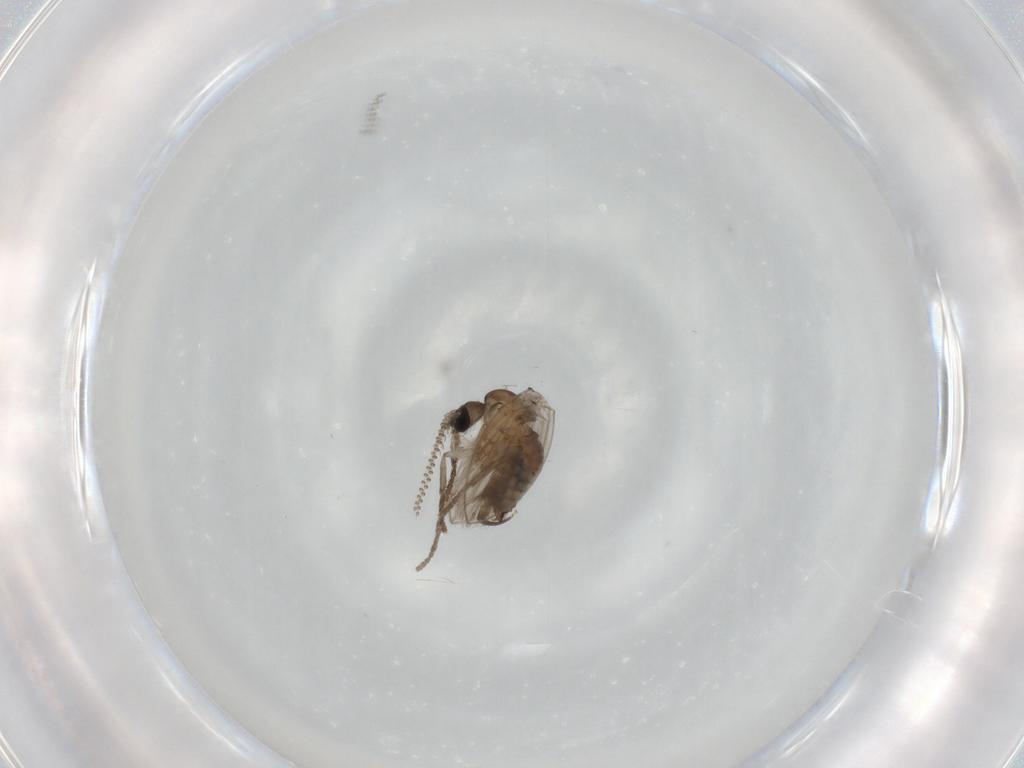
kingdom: Animalia
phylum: Arthropoda
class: Insecta
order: Diptera
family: Ceratopogonidae
